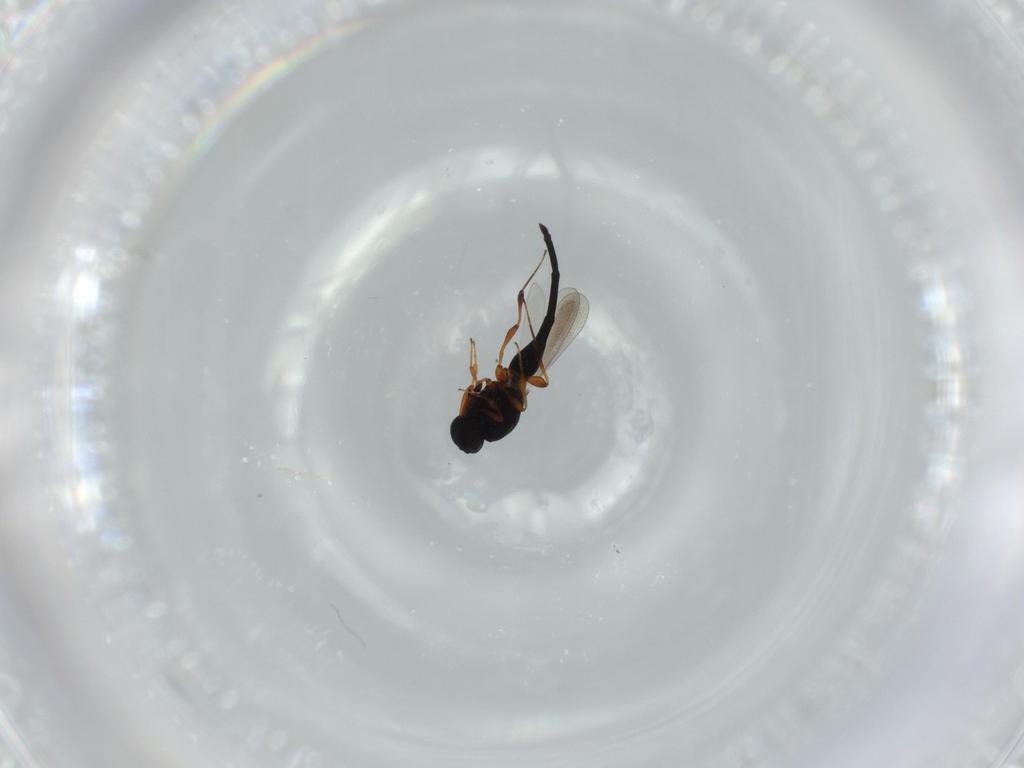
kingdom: Animalia
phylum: Arthropoda
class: Insecta
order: Hymenoptera
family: Platygastridae
